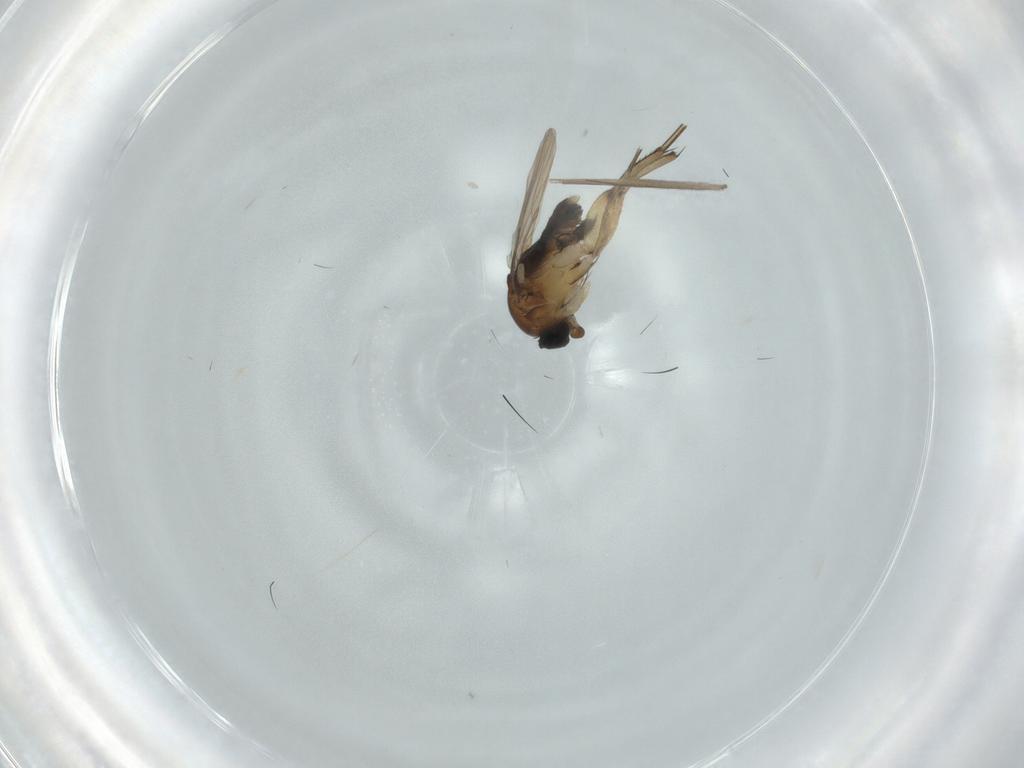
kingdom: Animalia
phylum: Arthropoda
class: Insecta
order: Diptera
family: Phoridae
